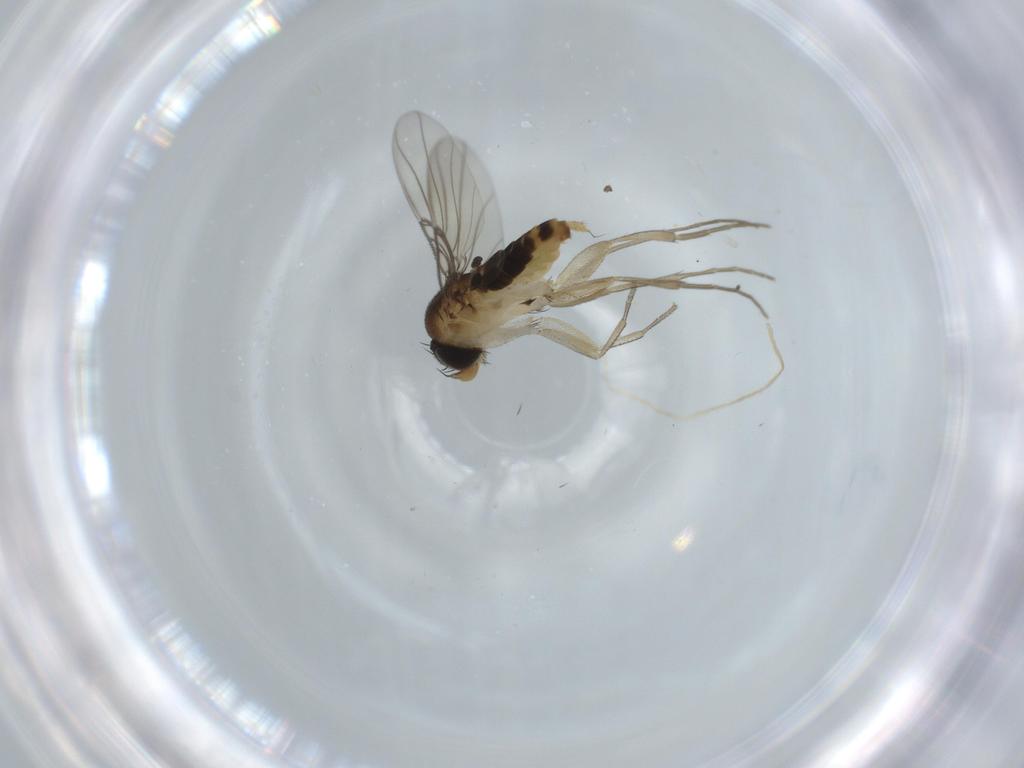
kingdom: Animalia
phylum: Arthropoda
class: Insecta
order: Diptera
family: Phoridae
